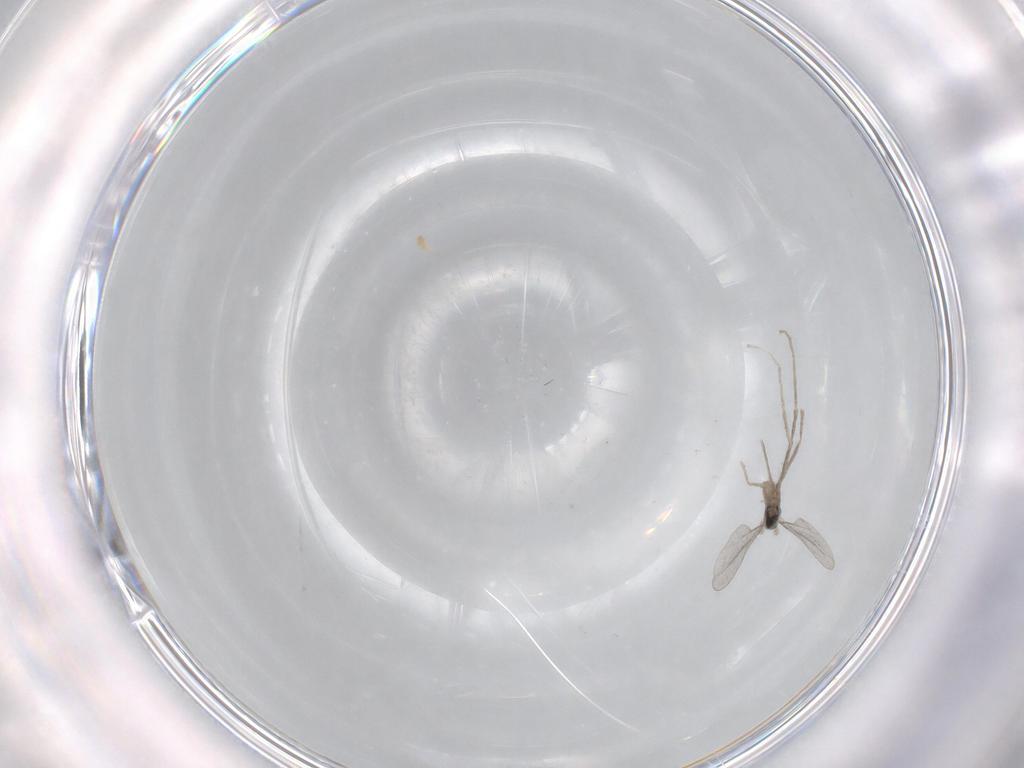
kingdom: Animalia
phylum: Arthropoda
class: Insecta
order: Diptera
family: Cecidomyiidae
